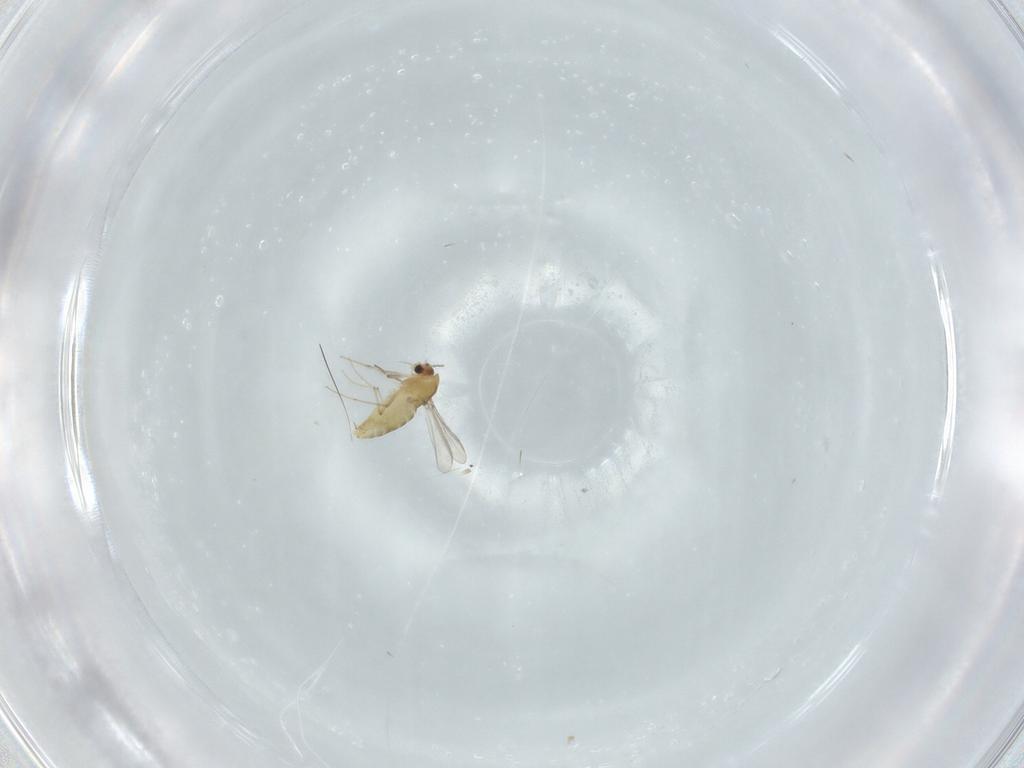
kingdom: Animalia
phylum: Arthropoda
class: Insecta
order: Diptera
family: Chironomidae
